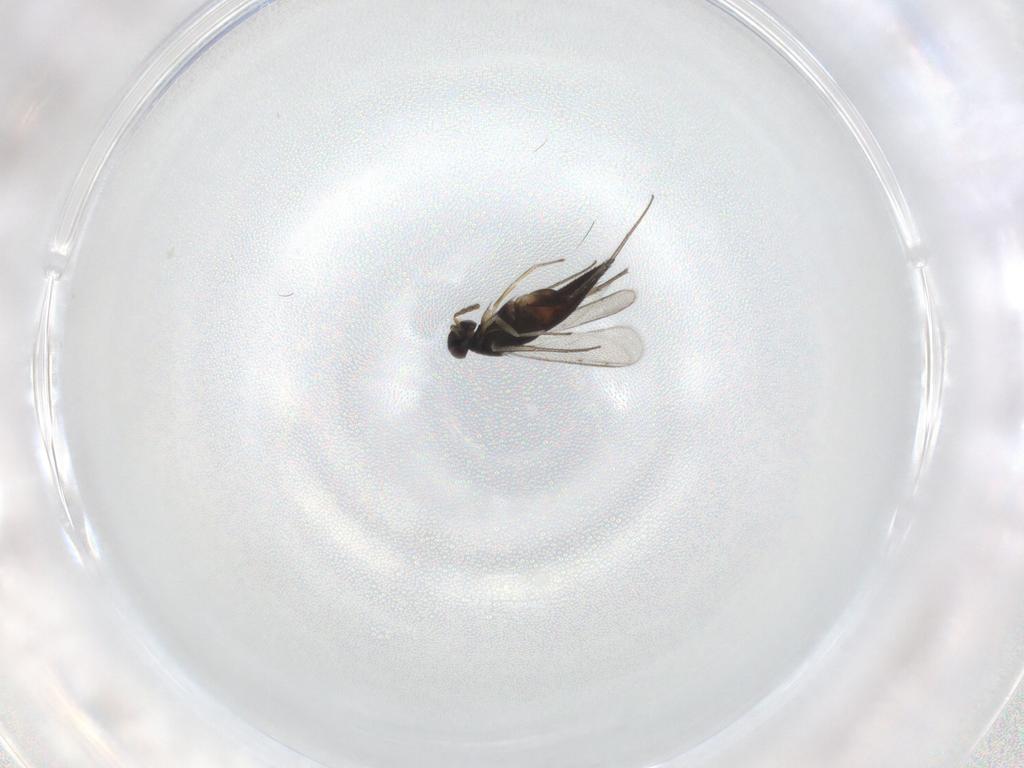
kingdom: Animalia
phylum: Arthropoda
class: Insecta
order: Hymenoptera
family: Eulophidae
